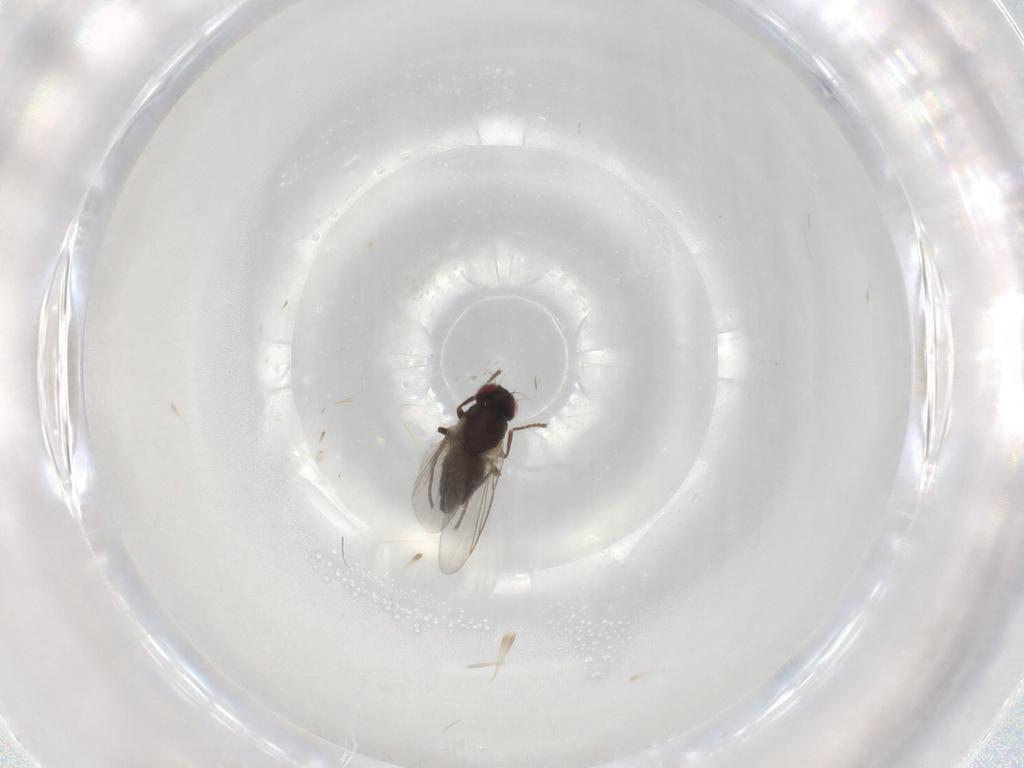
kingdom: Animalia
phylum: Arthropoda
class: Insecta
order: Diptera
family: Agromyzidae
